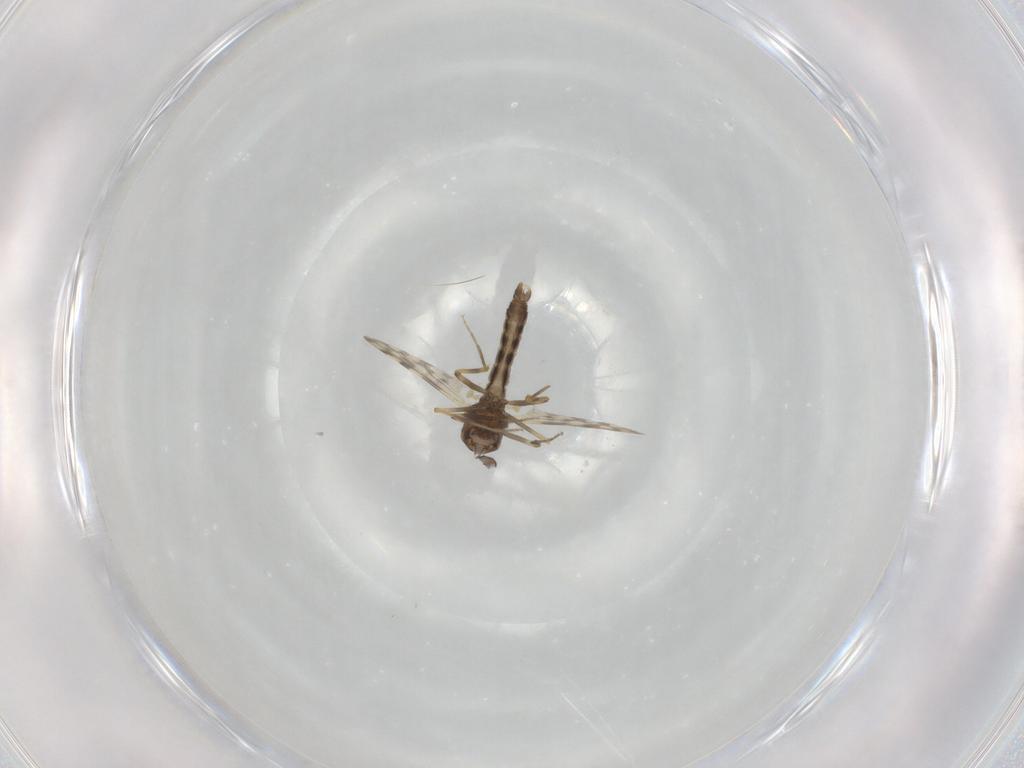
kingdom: Animalia
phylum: Arthropoda
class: Insecta
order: Diptera
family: Ceratopogonidae
